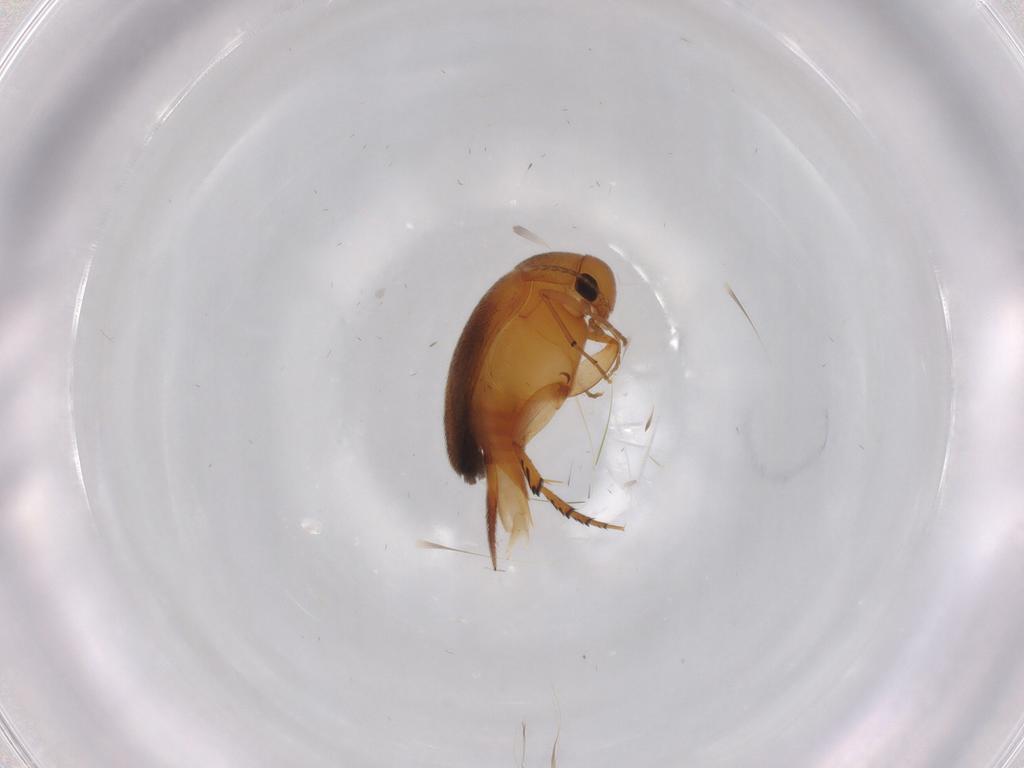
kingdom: Animalia
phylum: Arthropoda
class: Insecta
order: Coleoptera
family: Mordellidae
